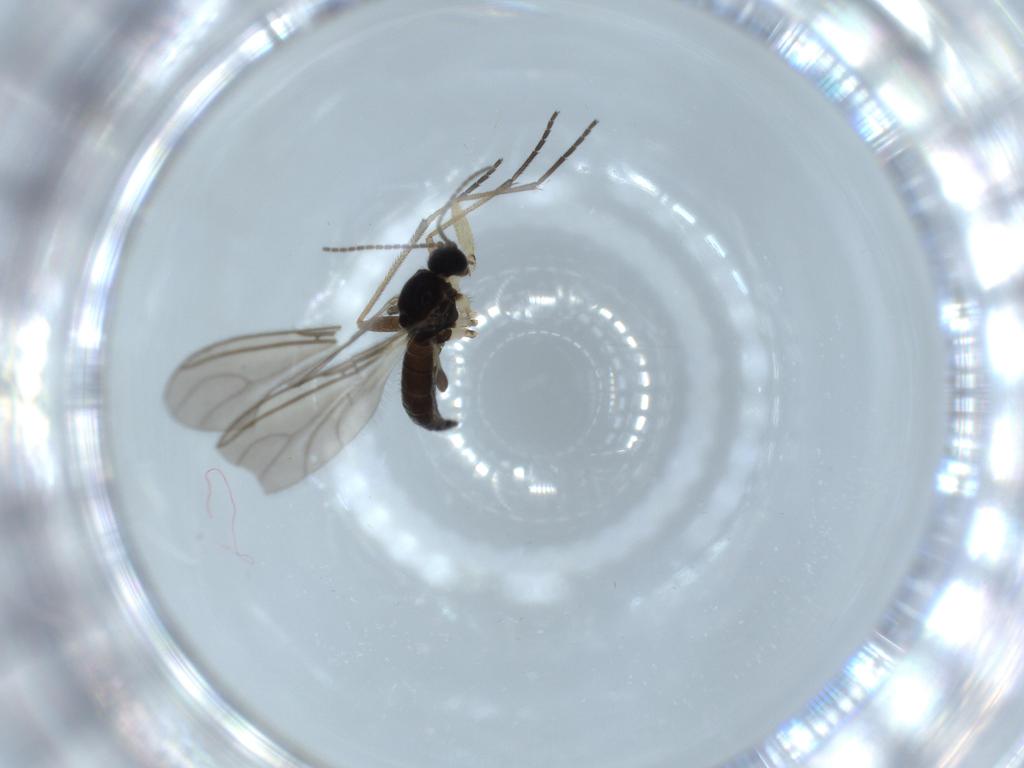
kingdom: Animalia
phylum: Arthropoda
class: Insecta
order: Diptera
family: Sciaridae
